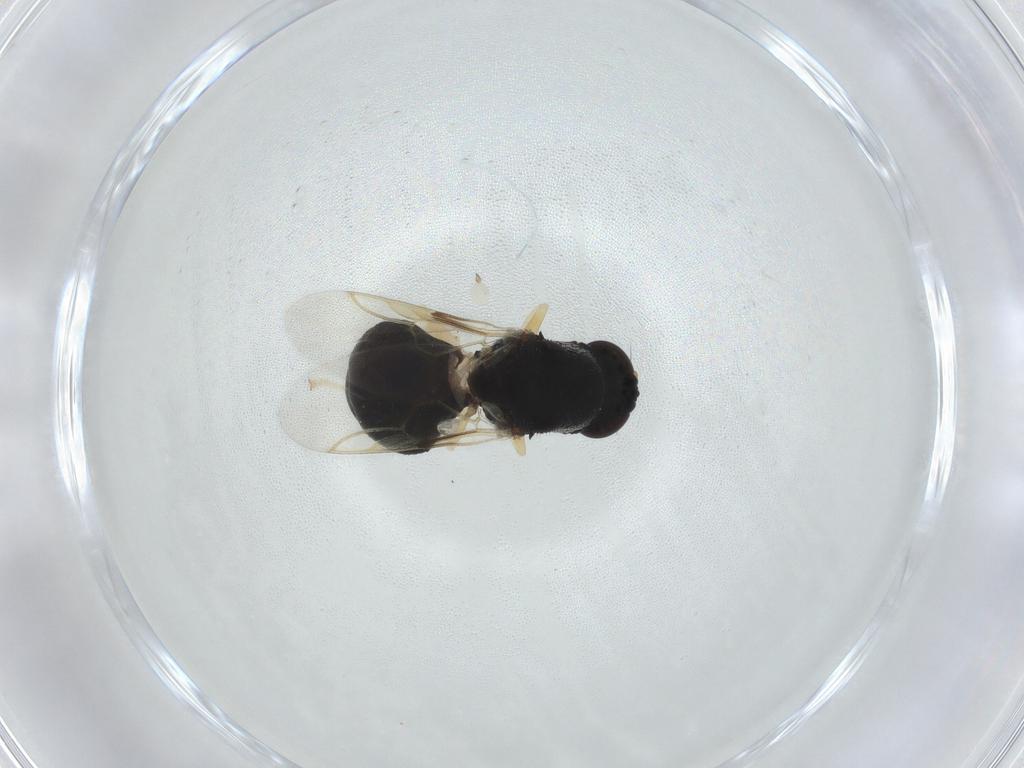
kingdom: Animalia
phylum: Arthropoda
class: Insecta
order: Diptera
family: Stratiomyidae
